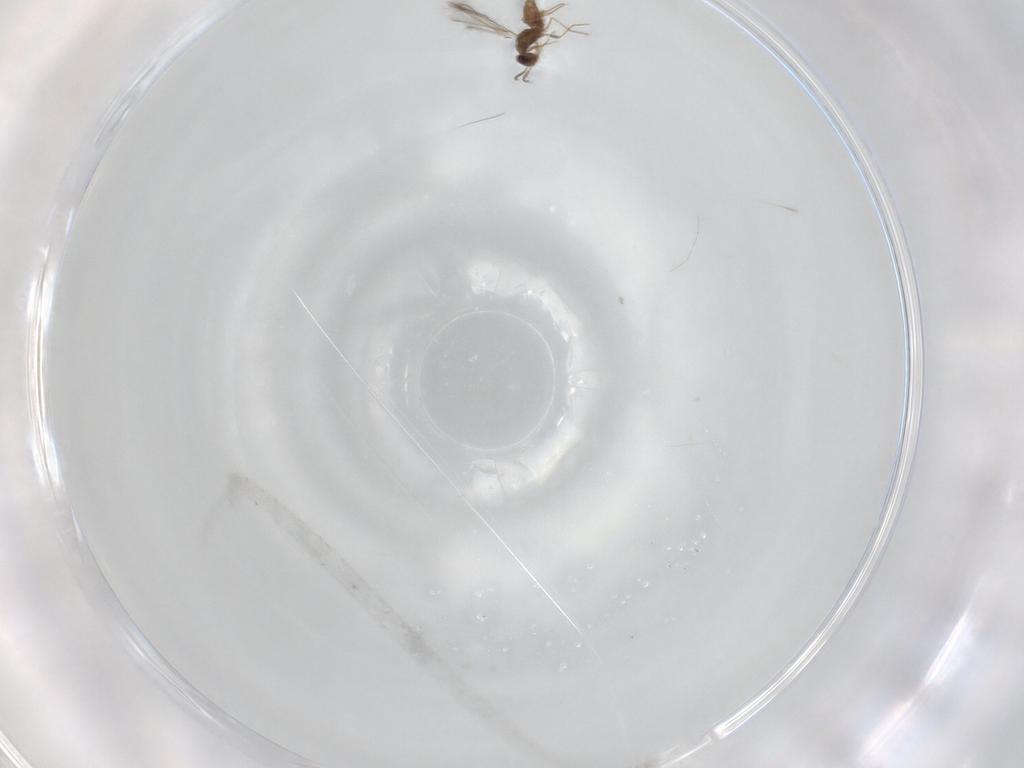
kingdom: Animalia
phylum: Arthropoda
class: Insecta
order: Hymenoptera
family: Mymaridae
